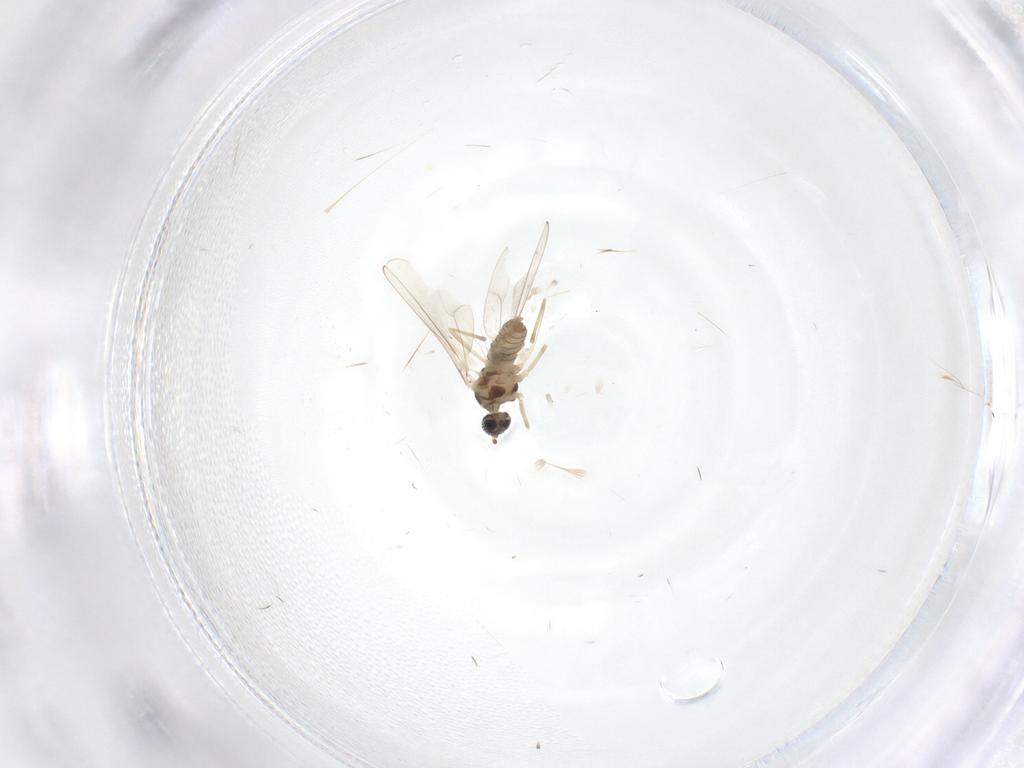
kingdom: Animalia
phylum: Arthropoda
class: Insecta
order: Diptera
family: Cecidomyiidae
